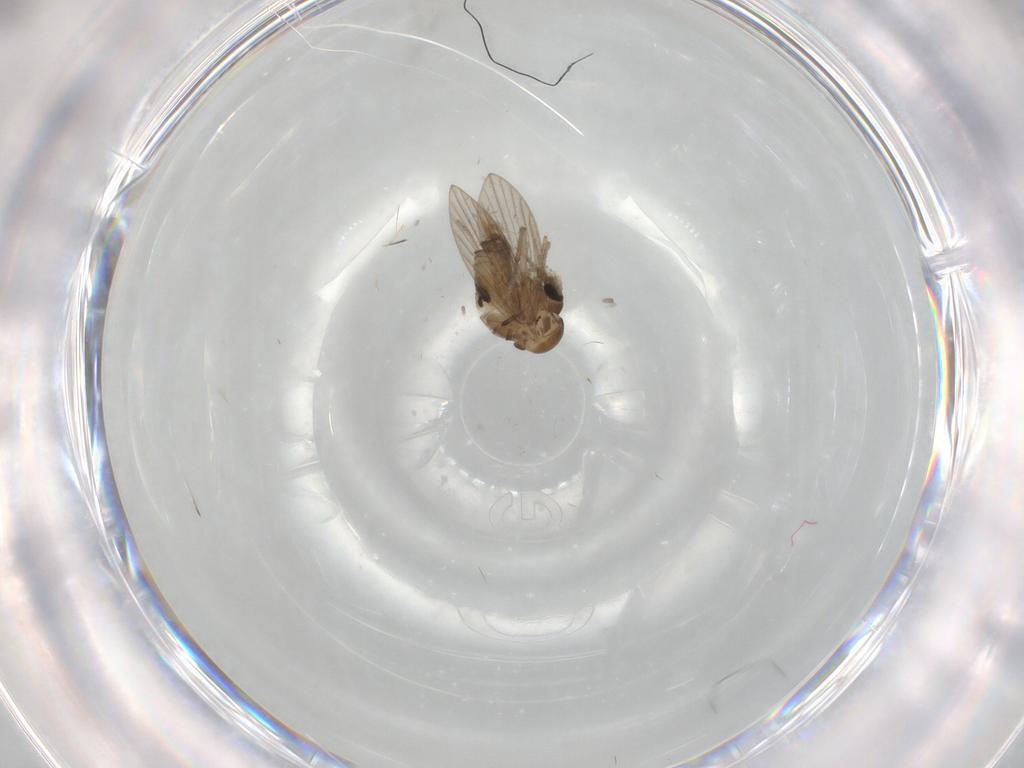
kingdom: Animalia
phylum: Arthropoda
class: Insecta
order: Diptera
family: Psychodidae
